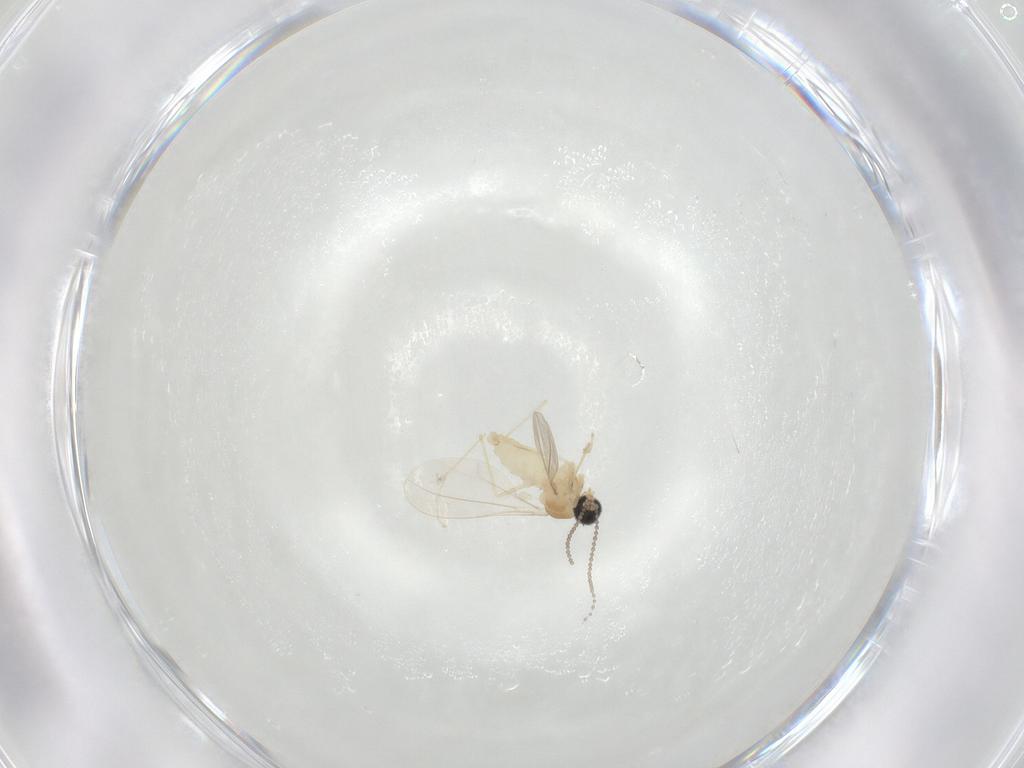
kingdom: Animalia
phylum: Arthropoda
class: Insecta
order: Diptera
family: Cecidomyiidae
